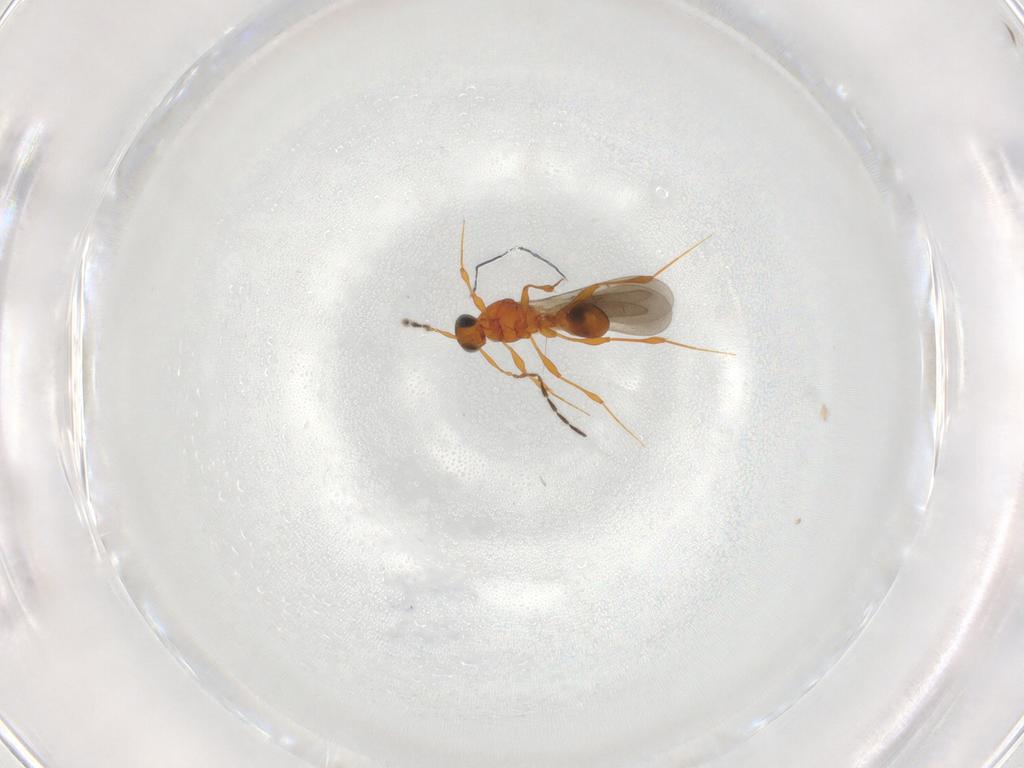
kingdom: Animalia
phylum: Arthropoda
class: Insecta
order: Hymenoptera
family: Platygastridae
